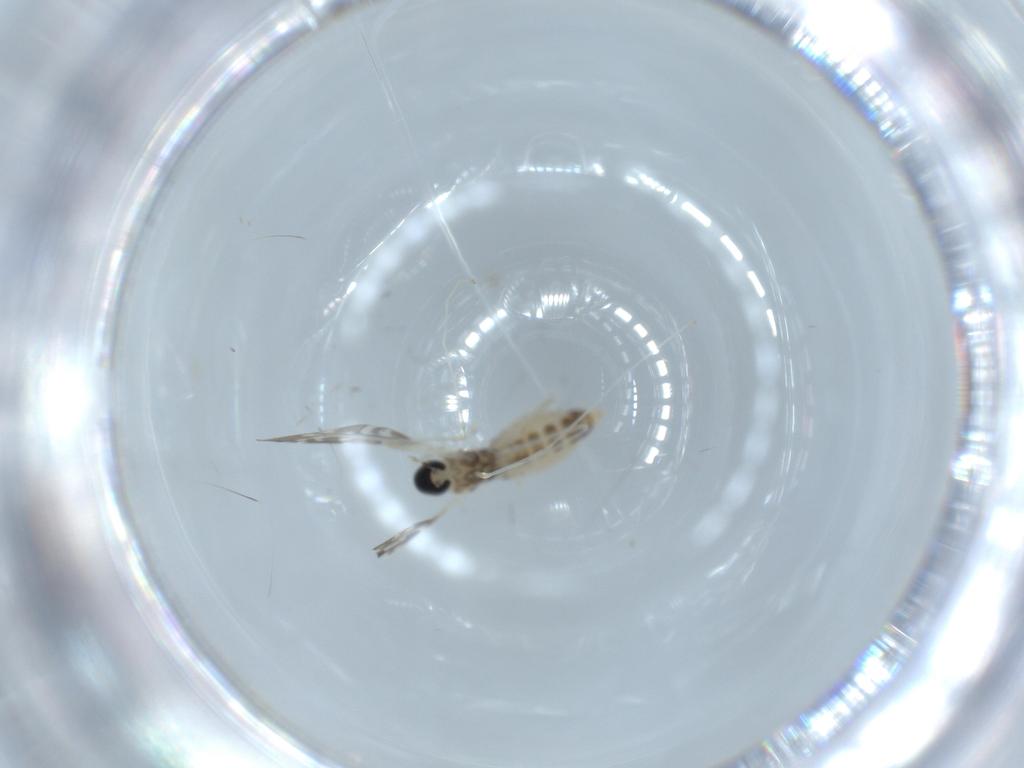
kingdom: Animalia
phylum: Arthropoda
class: Insecta
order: Diptera
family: Cecidomyiidae
